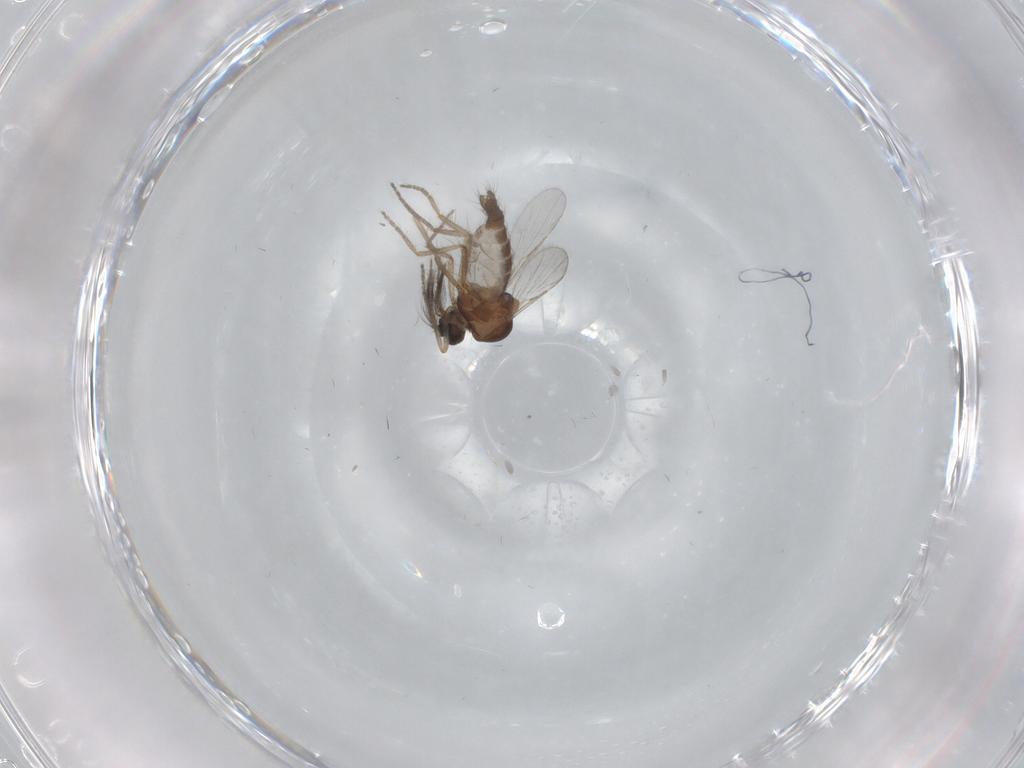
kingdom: Animalia
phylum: Arthropoda
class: Insecta
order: Diptera
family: Ceratopogonidae
